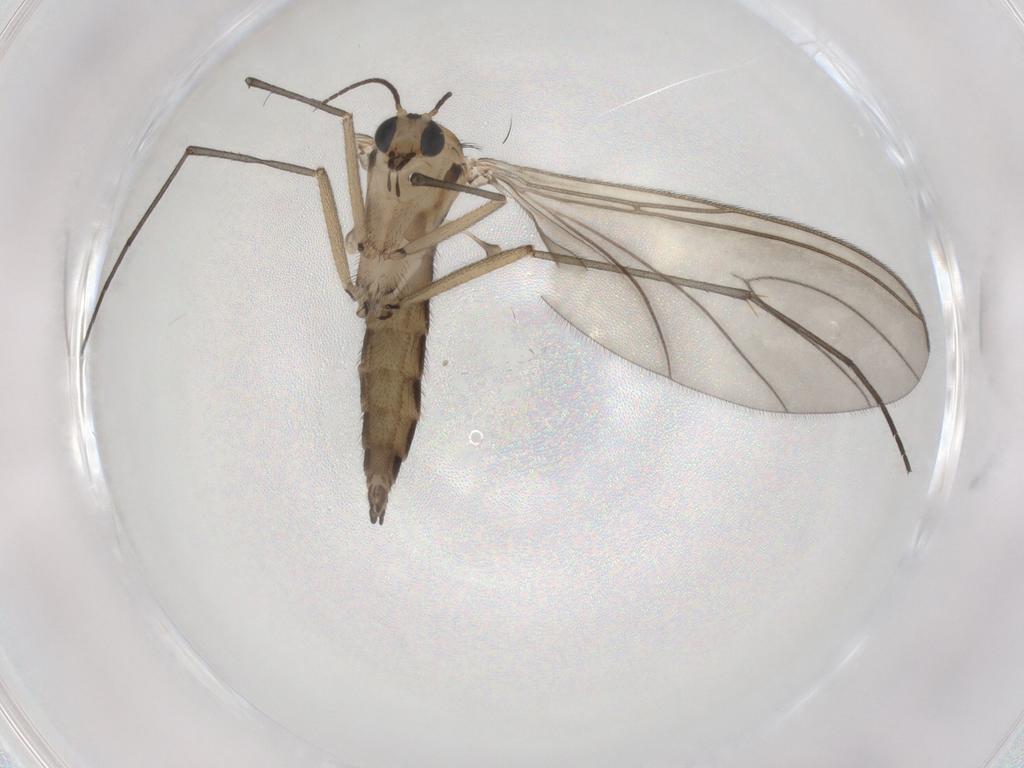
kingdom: Animalia
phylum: Arthropoda
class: Insecta
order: Diptera
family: Sciaridae
